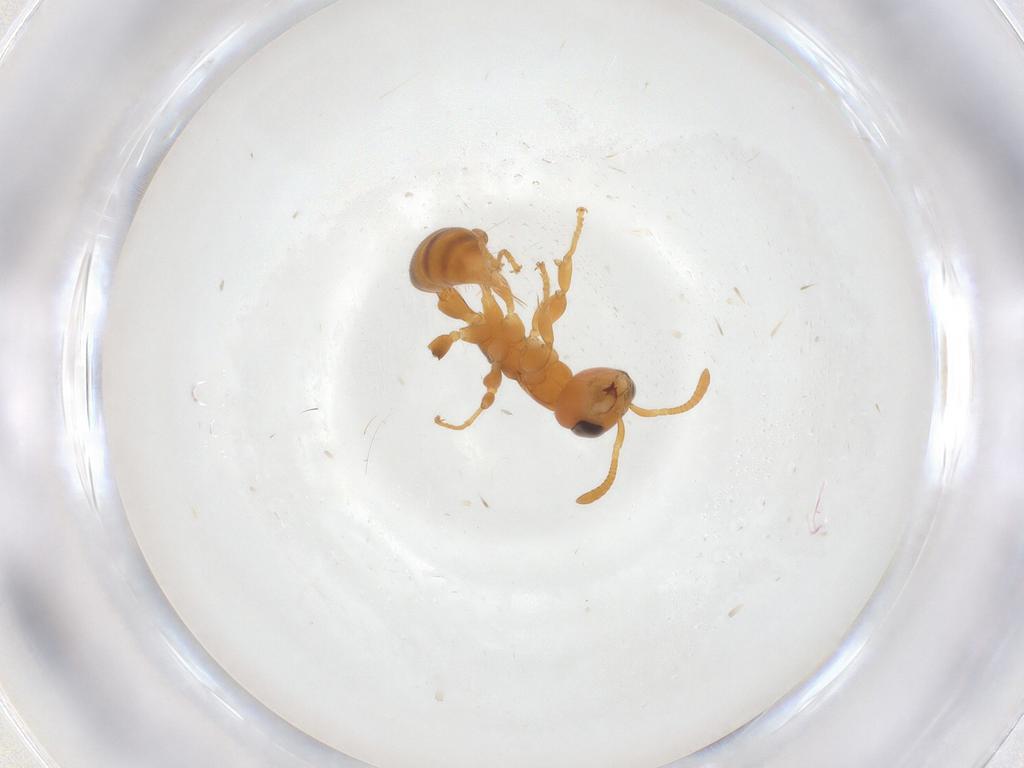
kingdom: Animalia
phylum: Arthropoda
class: Insecta
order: Hymenoptera
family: Formicidae
